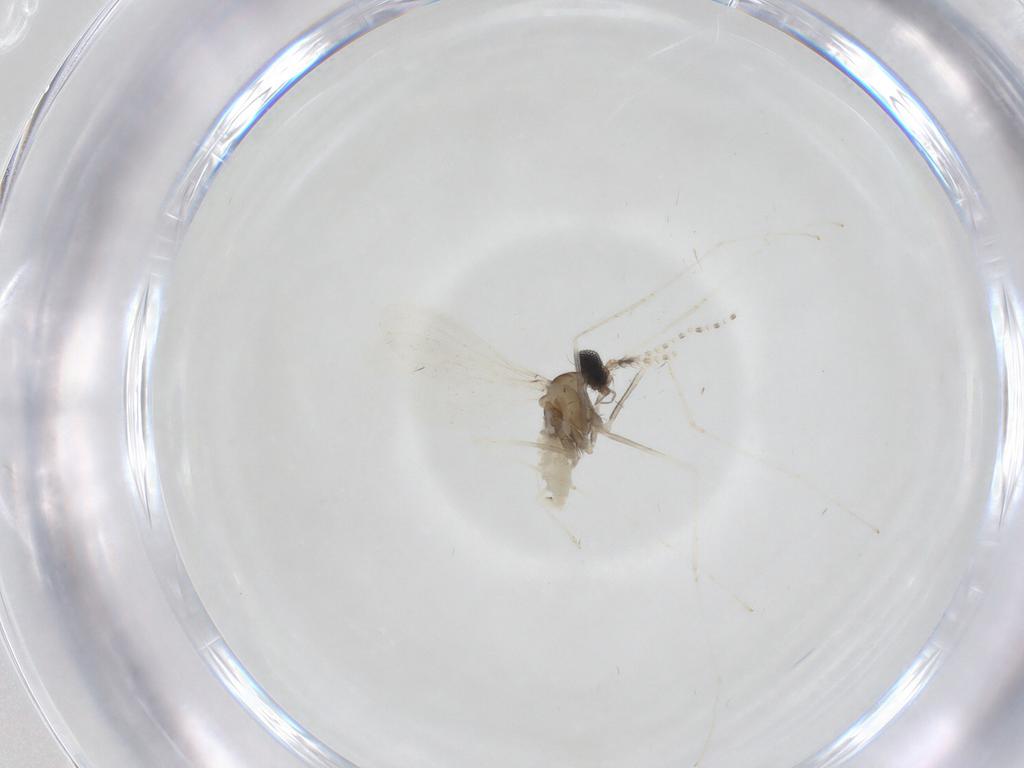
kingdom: Animalia
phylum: Arthropoda
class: Insecta
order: Diptera
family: Cecidomyiidae
